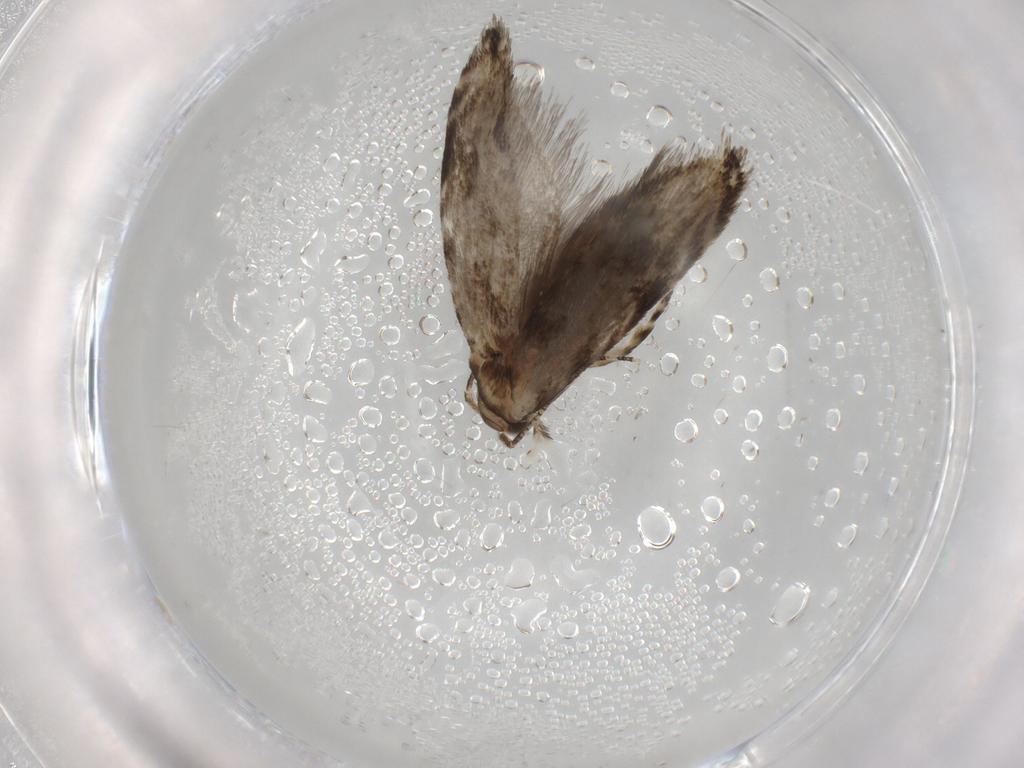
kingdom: Animalia
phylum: Arthropoda
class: Insecta
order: Lepidoptera
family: Tineidae
